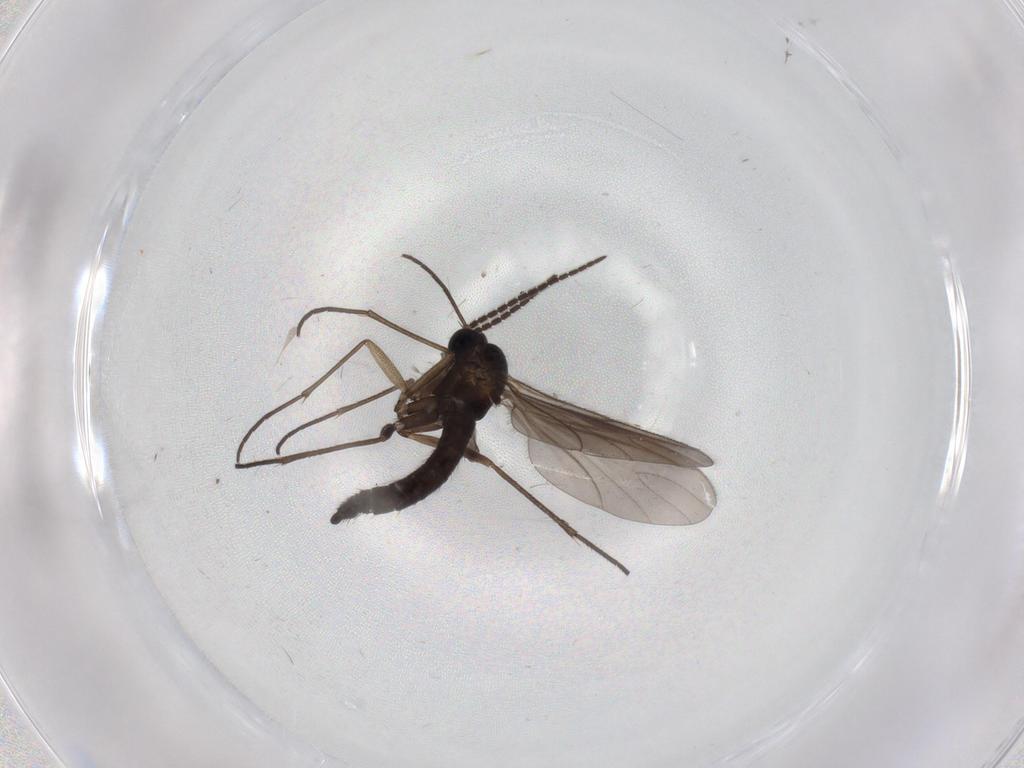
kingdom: Animalia
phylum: Arthropoda
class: Insecta
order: Diptera
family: Sciaridae
